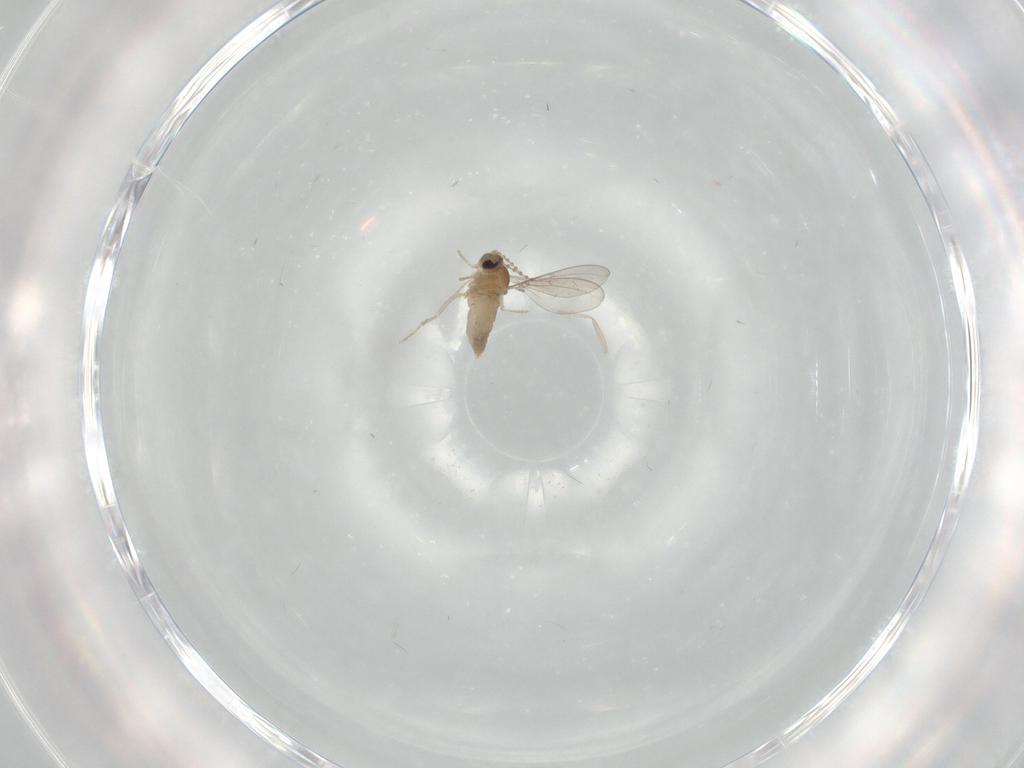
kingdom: Animalia
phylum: Arthropoda
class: Insecta
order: Diptera
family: Cecidomyiidae
